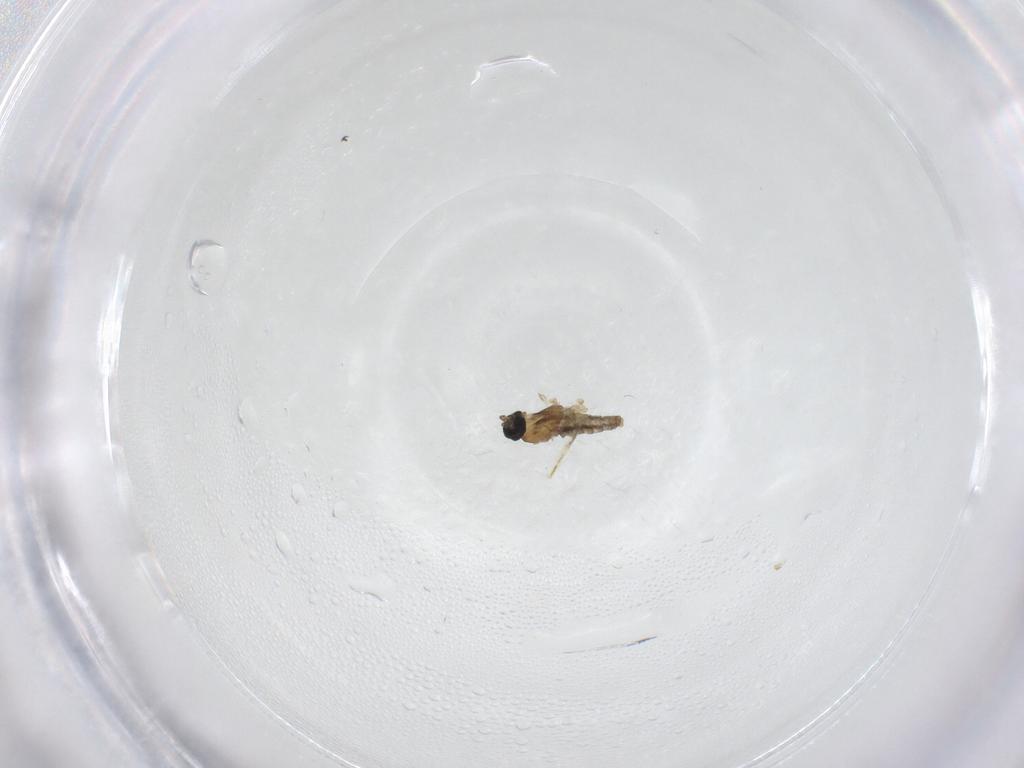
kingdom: Animalia
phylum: Arthropoda
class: Insecta
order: Diptera
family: Cecidomyiidae
